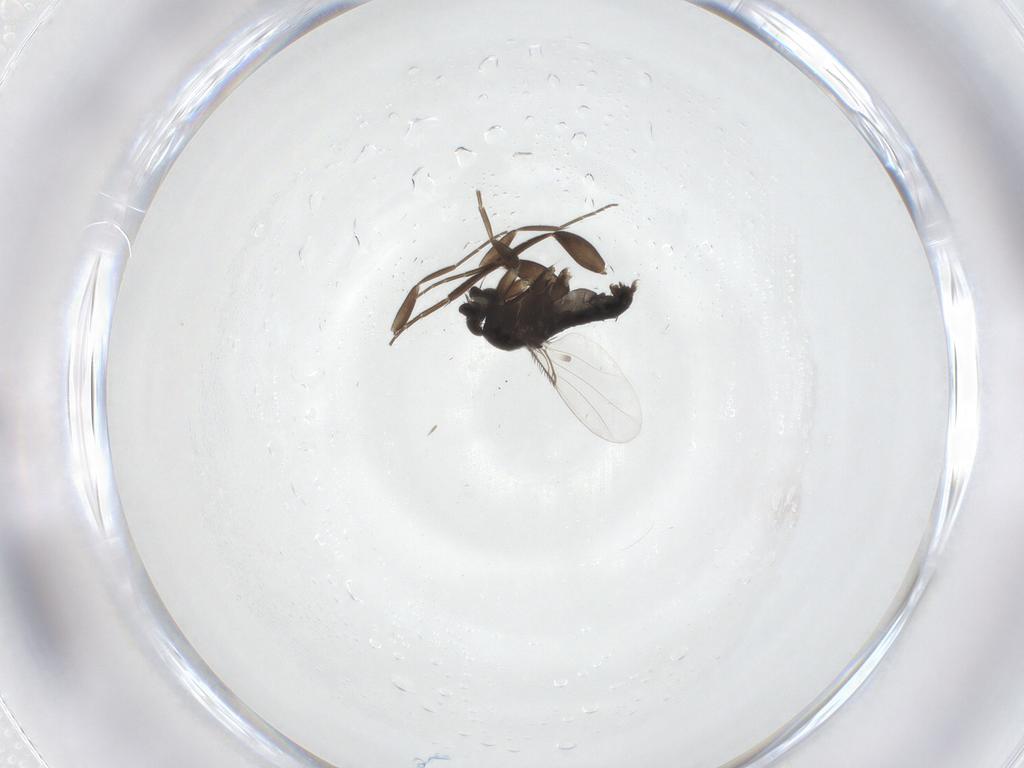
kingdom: Animalia
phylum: Arthropoda
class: Insecta
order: Diptera
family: Phoridae
